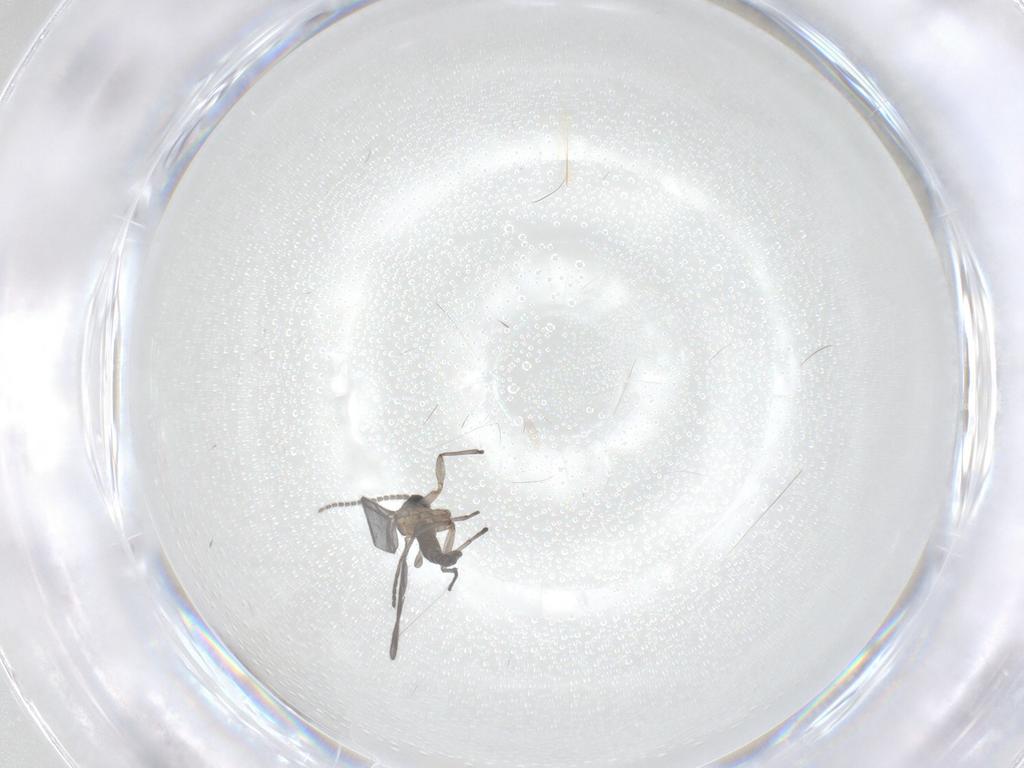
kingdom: Animalia
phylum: Arthropoda
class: Insecta
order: Diptera
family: Sciaridae
